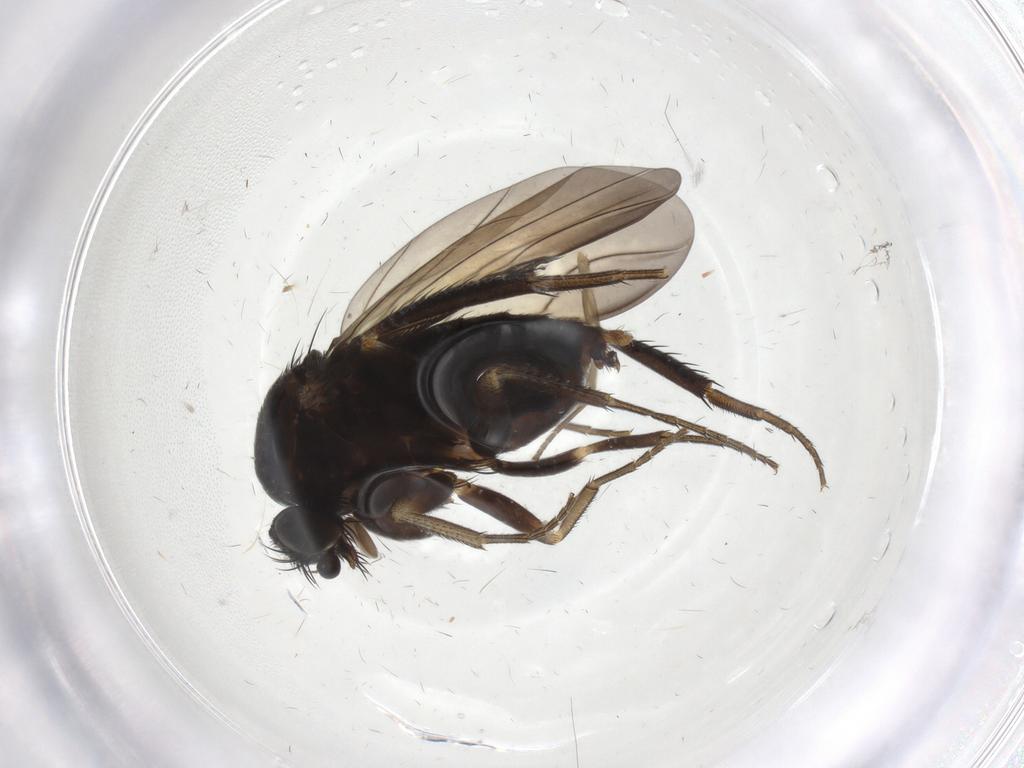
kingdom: Animalia
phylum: Arthropoda
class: Insecta
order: Diptera
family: Phoridae
